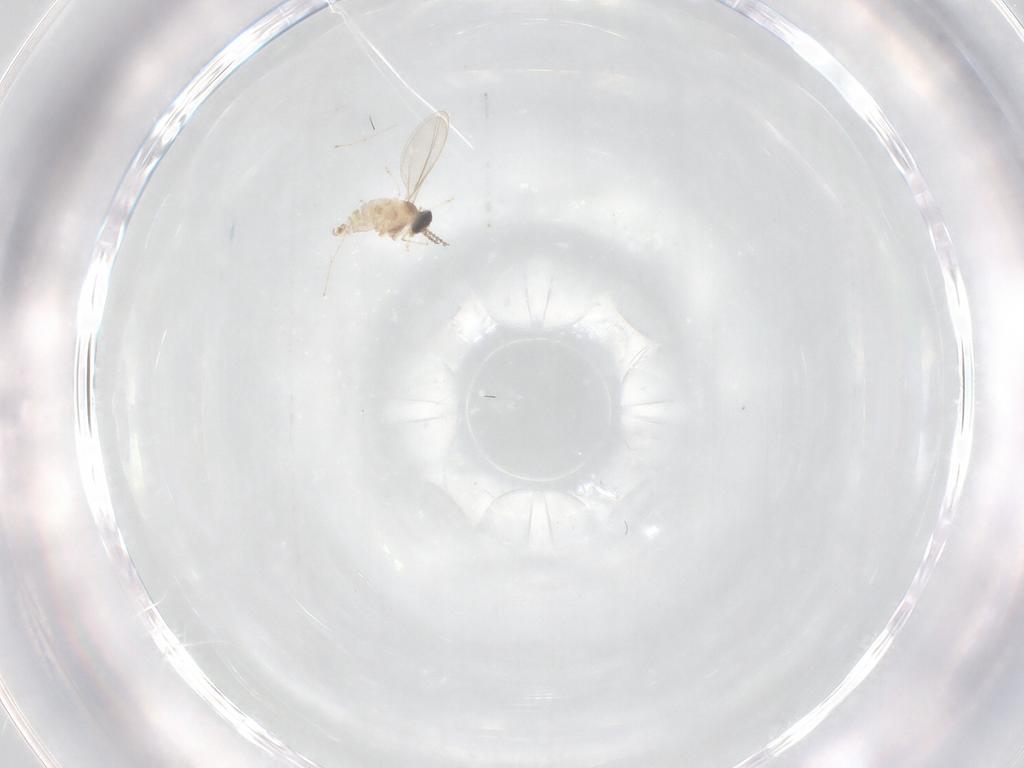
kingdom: Animalia
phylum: Arthropoda
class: Insecta
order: Diptera
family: Cecidomyiidae
